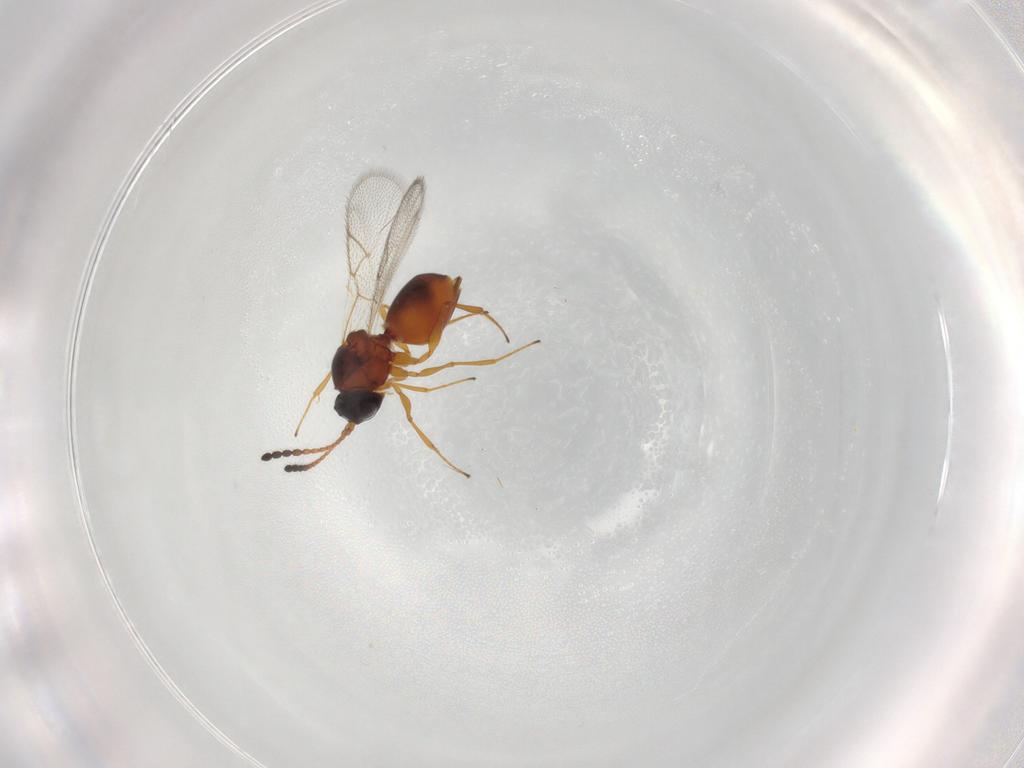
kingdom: Animalia
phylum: Arthropoda
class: Insecta
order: Hymenoptera
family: Figitidae
